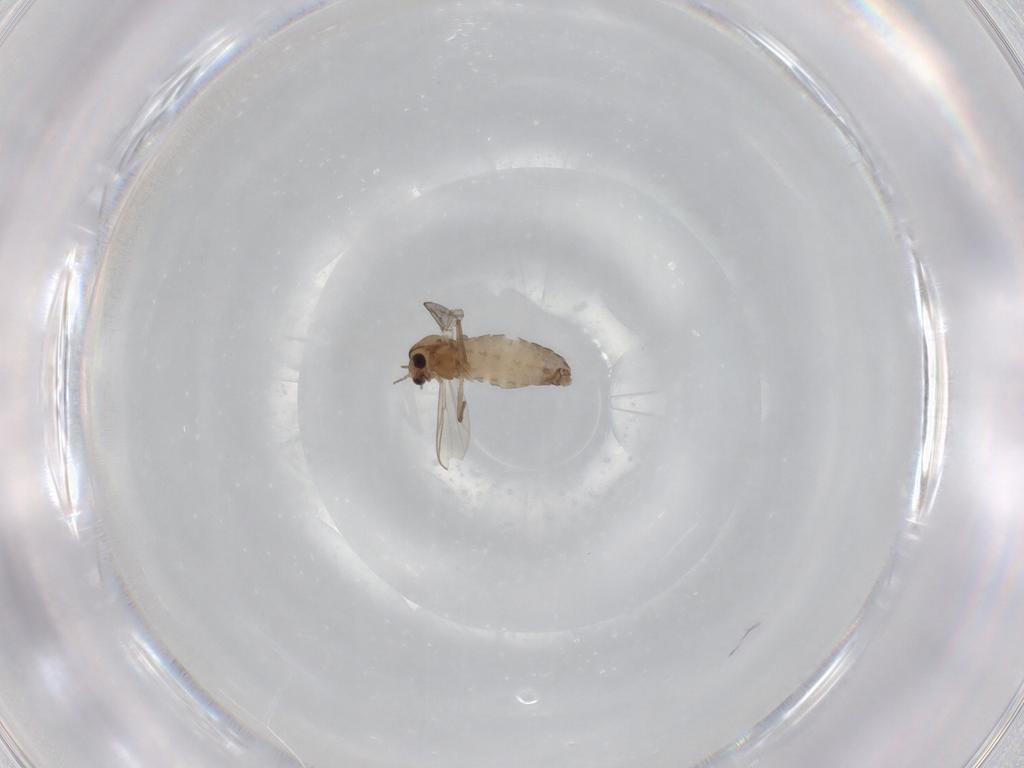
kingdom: Animalia
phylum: Arthropoda
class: Insecta
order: Diptera
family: Chironomidae
